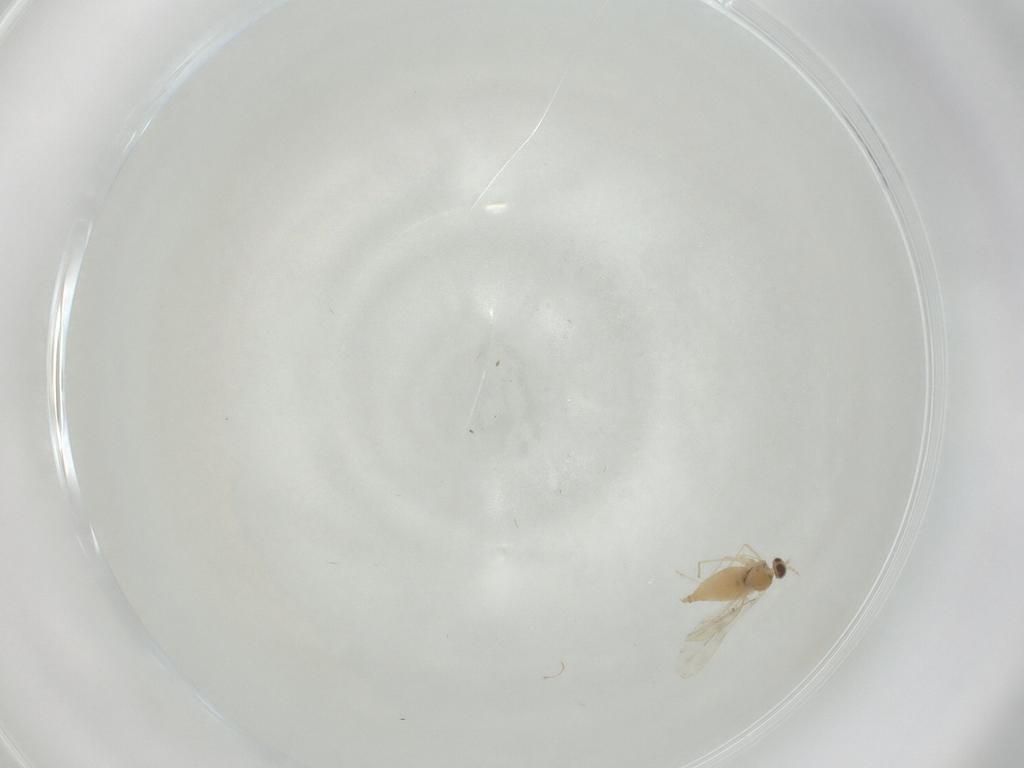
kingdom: Animalia
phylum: Arthropoda
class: Insecta
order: Diptera
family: Cecidomyiidae
